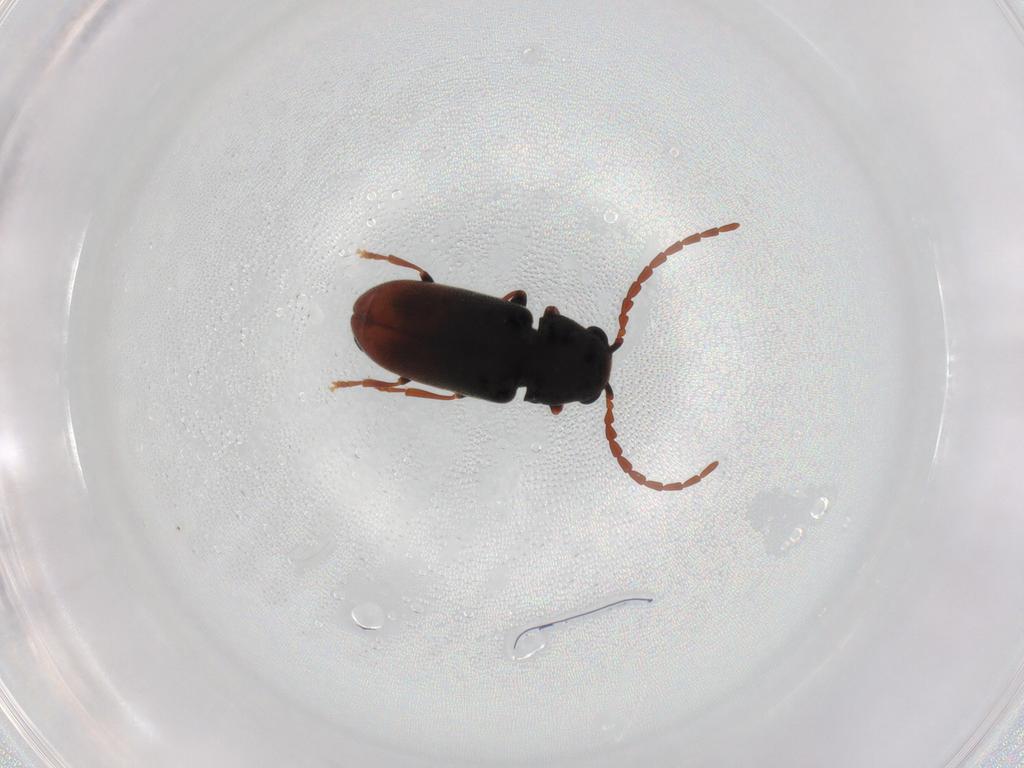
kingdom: Animalia
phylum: Arthropoda
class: Insecta
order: Coleoptera
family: Ptinidae
